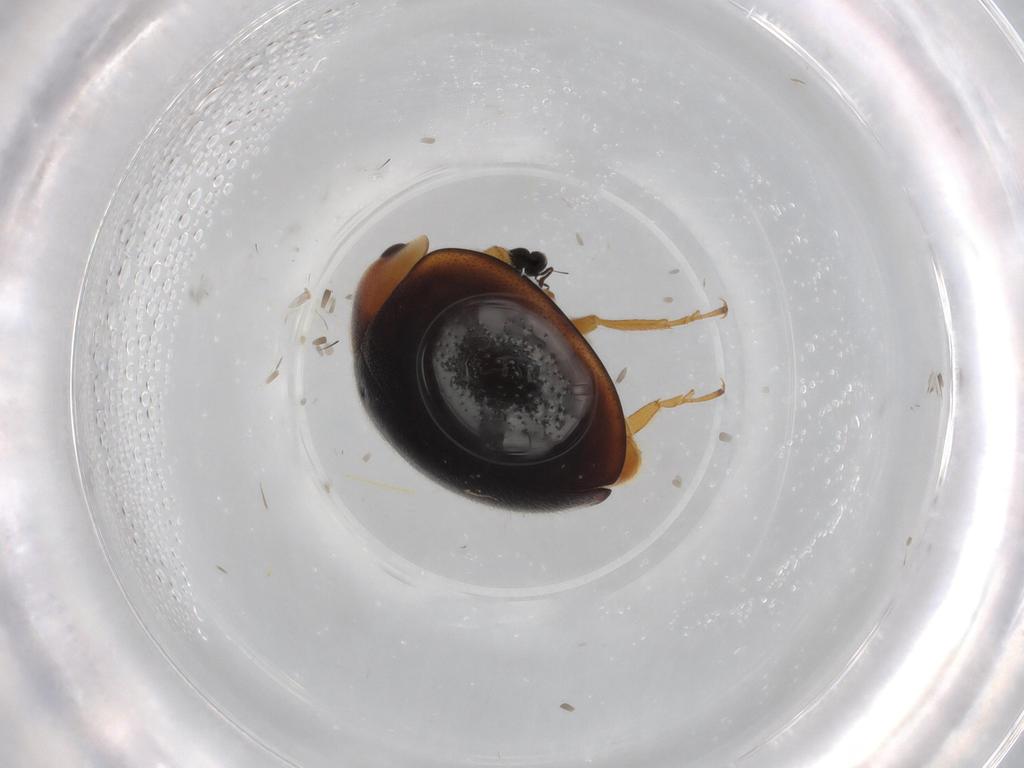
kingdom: Animalia
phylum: Arthropoda
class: Insecta
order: Coleoptera
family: Coccinellidae
